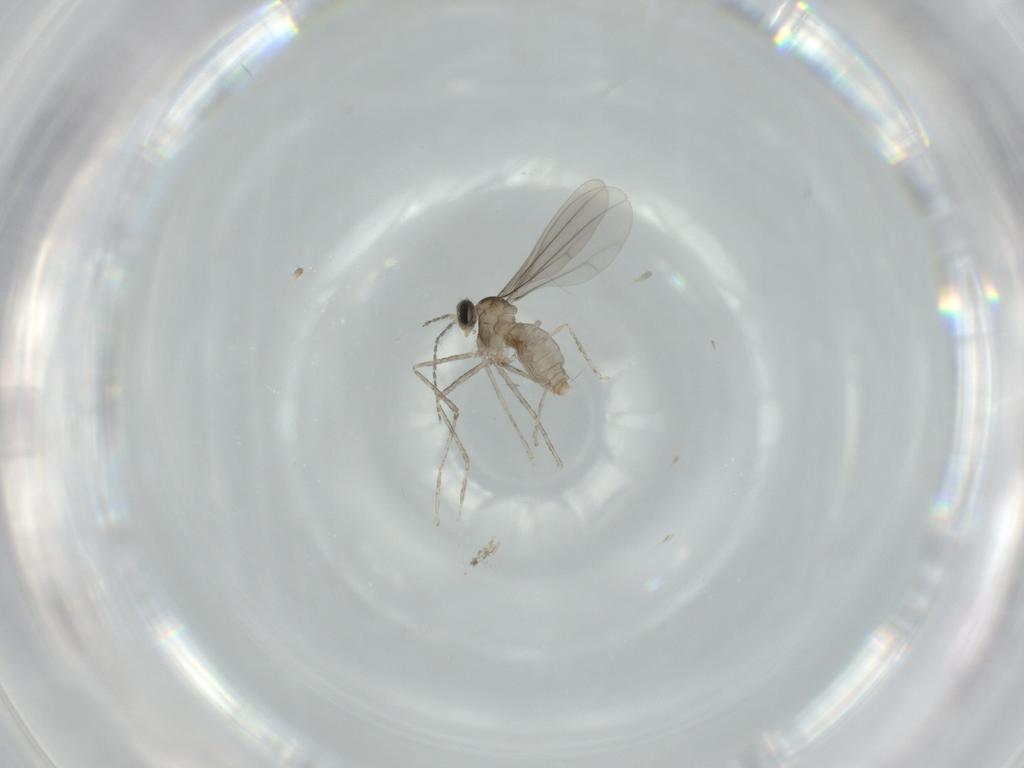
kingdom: Animalia
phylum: Arthropoda
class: Insecta
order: Diptera
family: Cecidomyiidae
